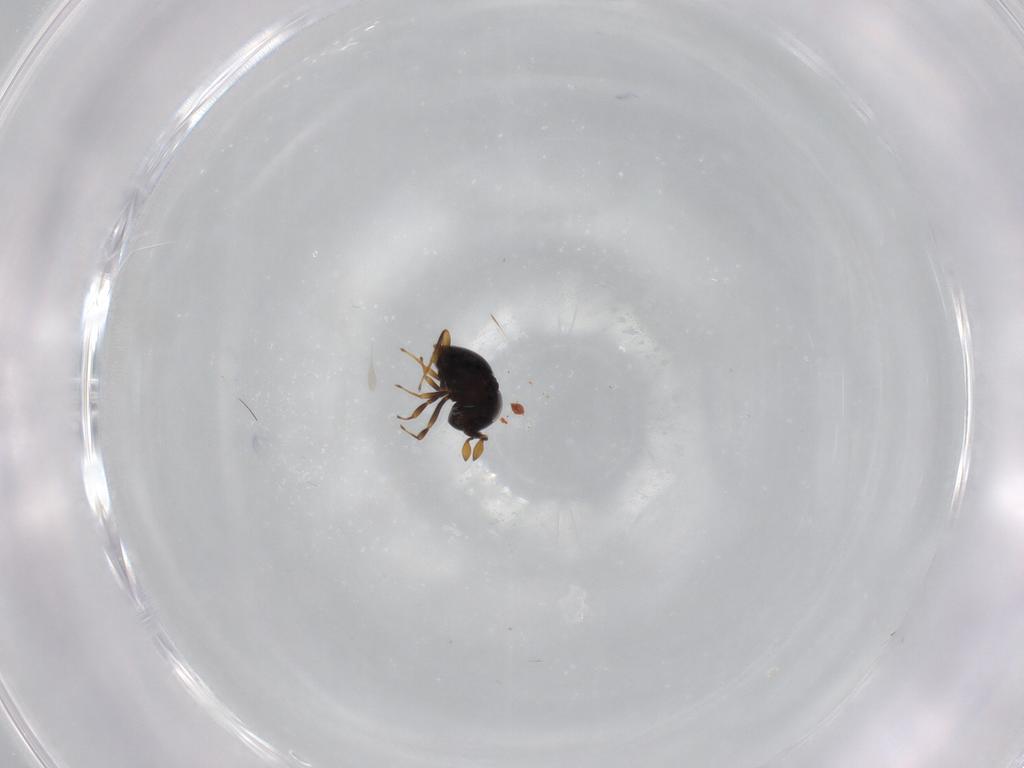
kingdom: Animalia
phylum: Arthropoda
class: Insecta
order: Hymenoptera
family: Scelionidae
